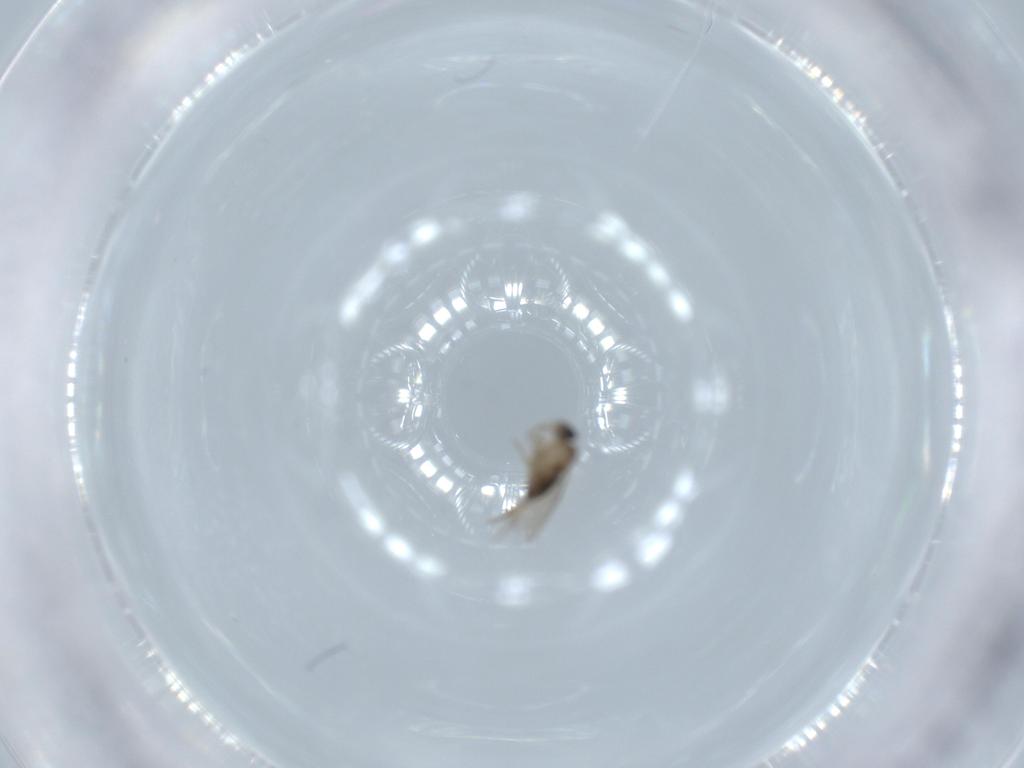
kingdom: Animalia
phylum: Arthropoda
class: Insecta
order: Diptera
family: Phoridae
